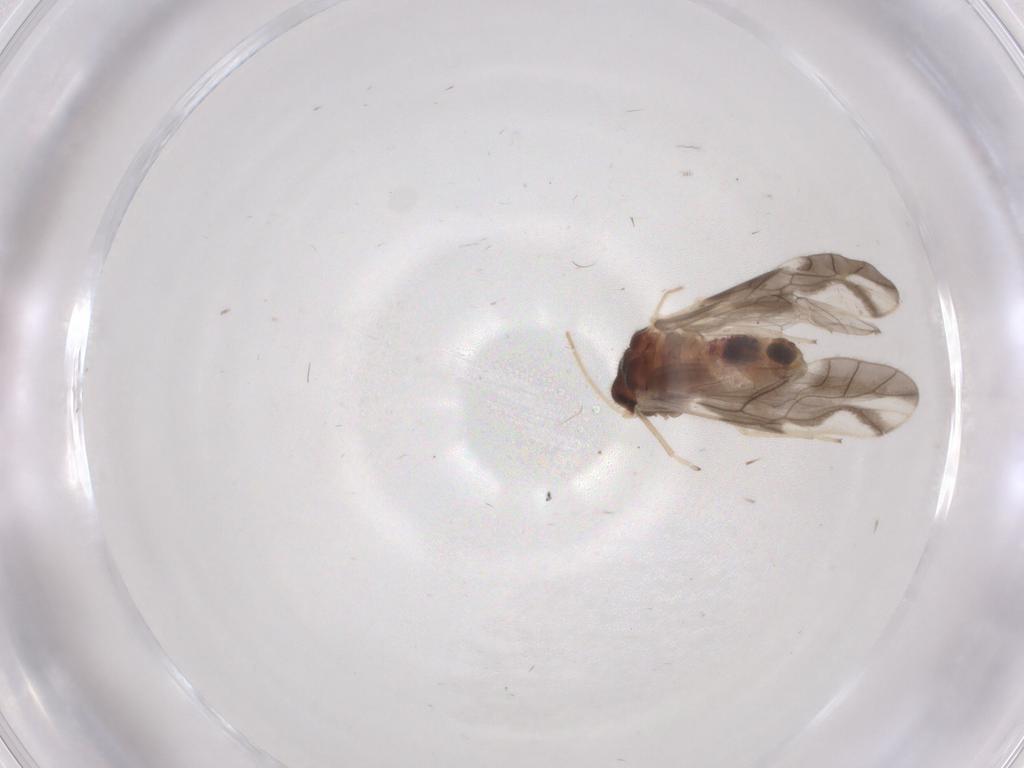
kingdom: Animalia
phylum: Arthropoda
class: Insecta
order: Psocodea
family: Caeciliusidae
